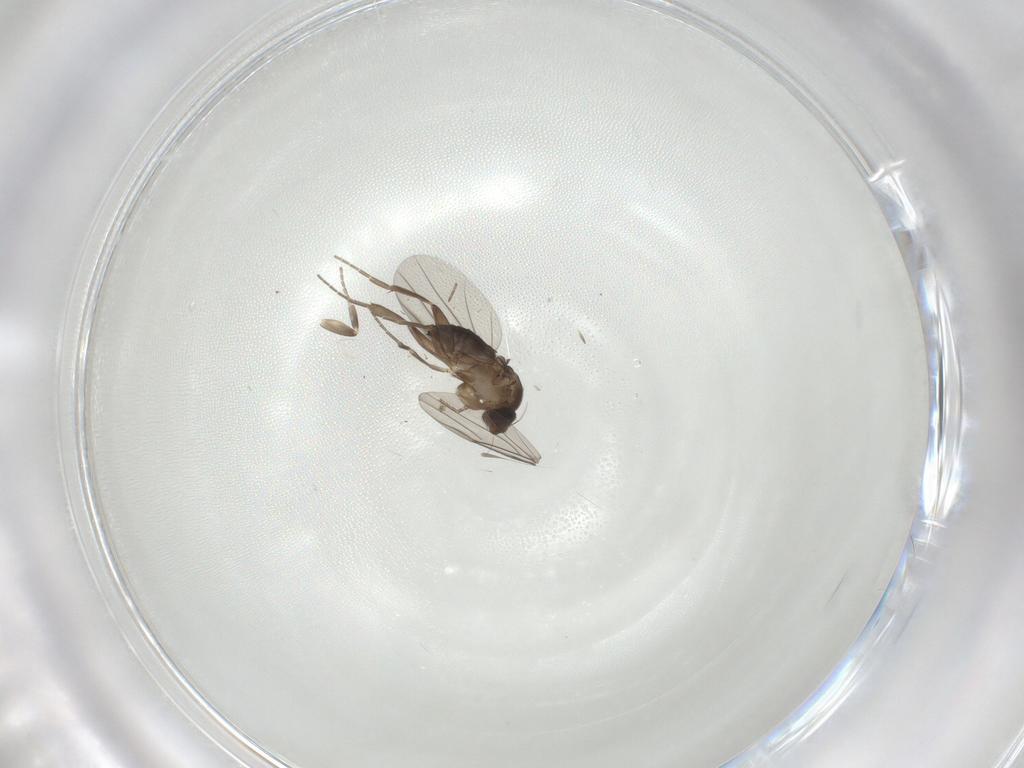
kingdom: Animalia
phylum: Arthropoda
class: Insecta
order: Diptera
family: Phoridae
